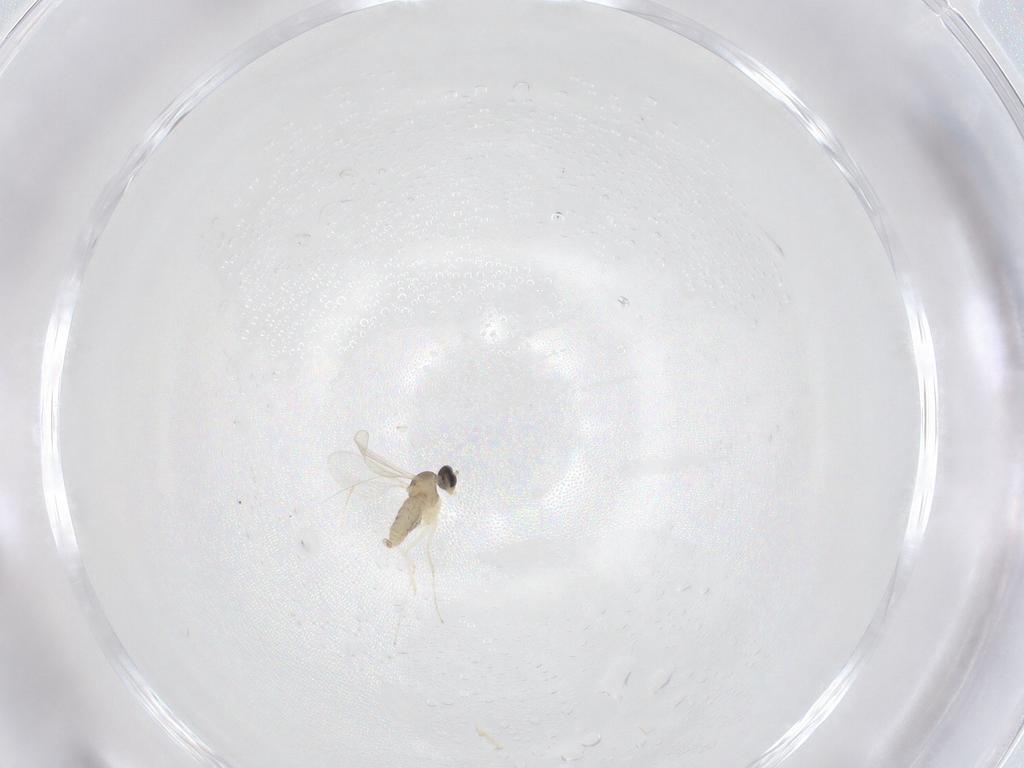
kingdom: Animalia
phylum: Arthropoda
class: Insecta
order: Diptera
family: Cecidomyiidae
